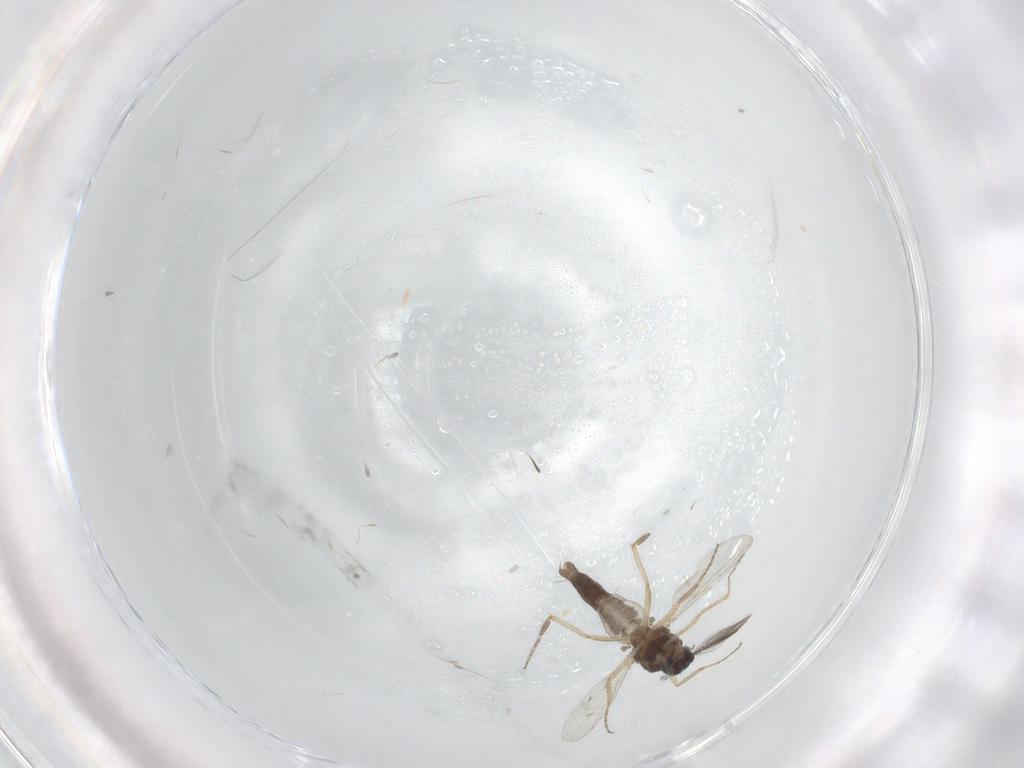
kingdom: Animalia
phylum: Arthropoda
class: Insecta
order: Diptera
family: Ceratopogonidae
